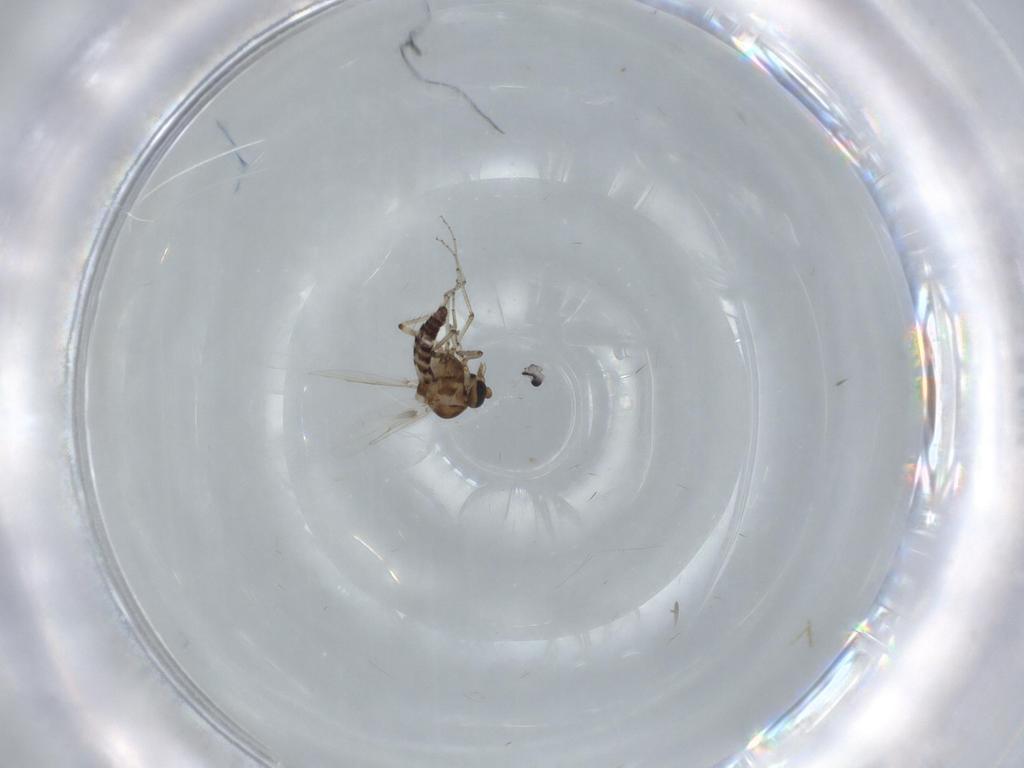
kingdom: Animalia
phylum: Arthropoda
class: Insecta
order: Diptera
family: Ceratopogonidae
